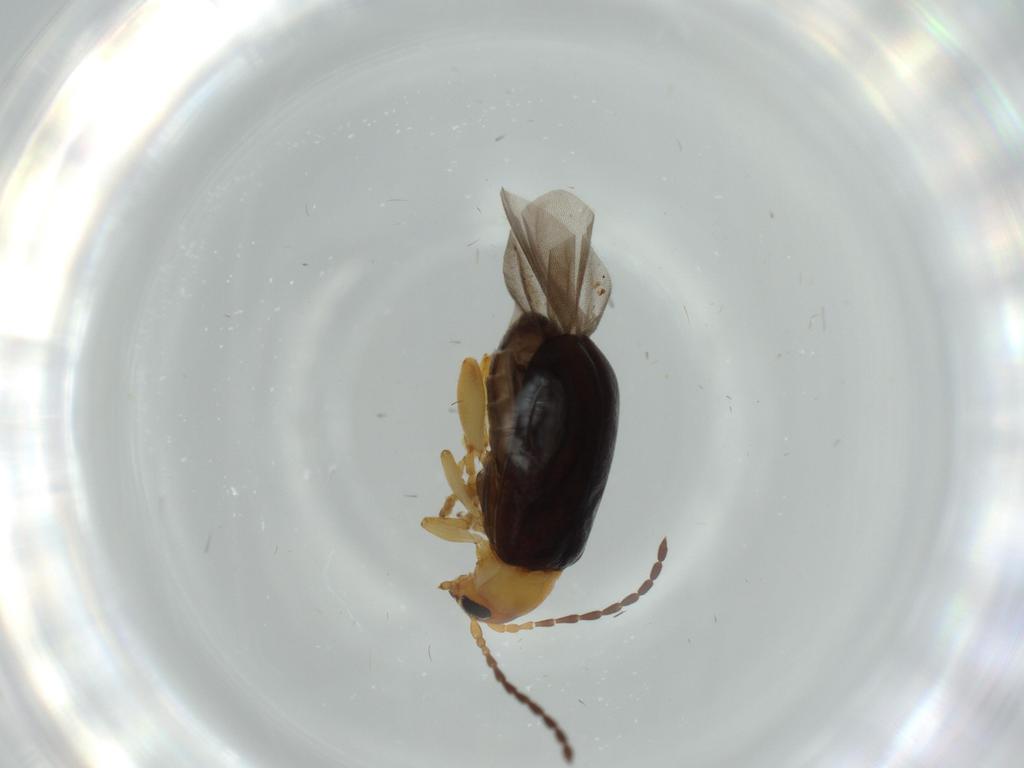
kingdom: Animalia
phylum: Arthropoda
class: Insecta
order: Coleoptera
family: Chrysomelidae
